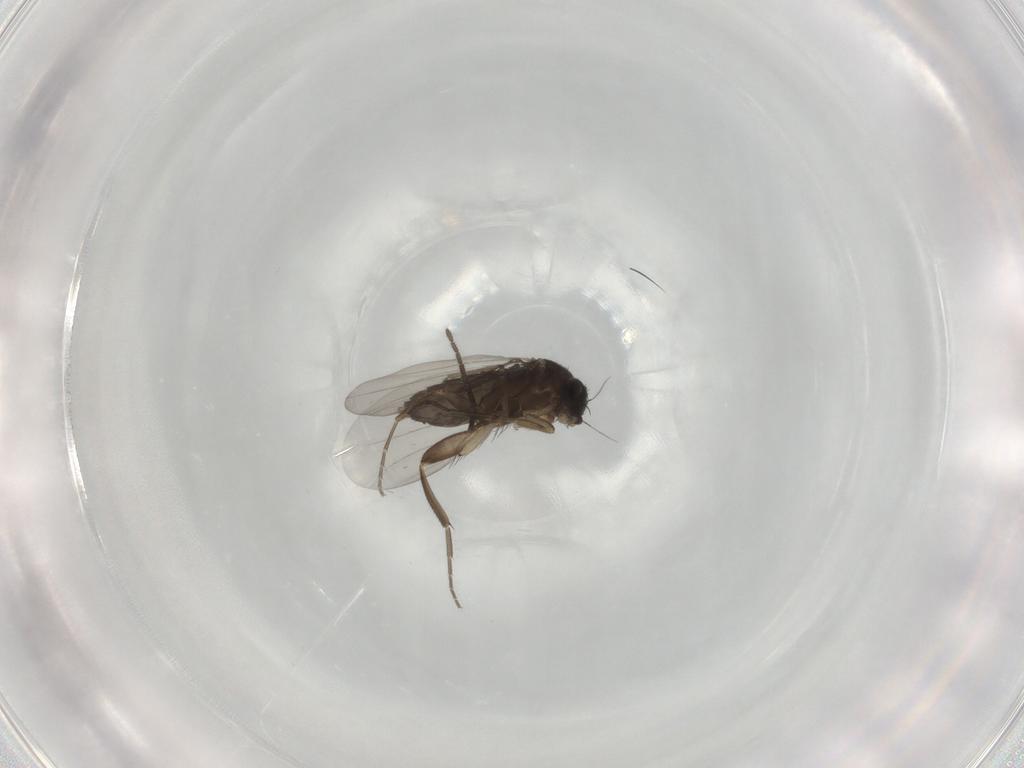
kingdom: Animalia
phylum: Arthropoda
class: Insecta
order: Diptera
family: Phoridae
